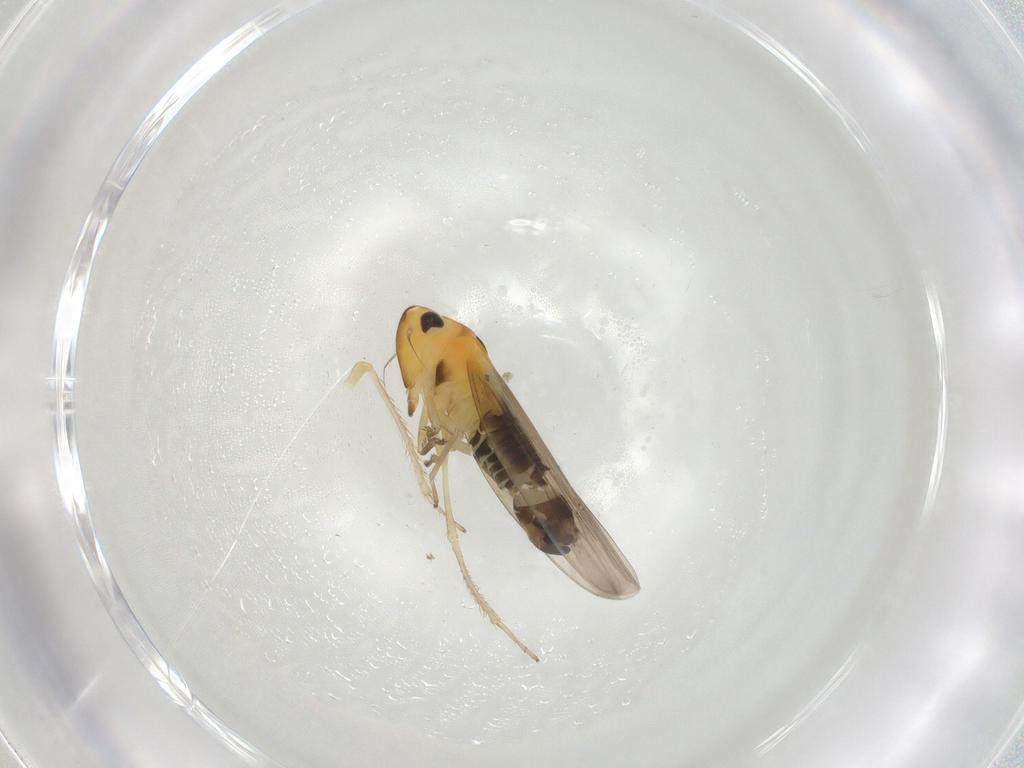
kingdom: Animalia
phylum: Arthropoda
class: Insecta
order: Hemiptera
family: Cicadellidae
